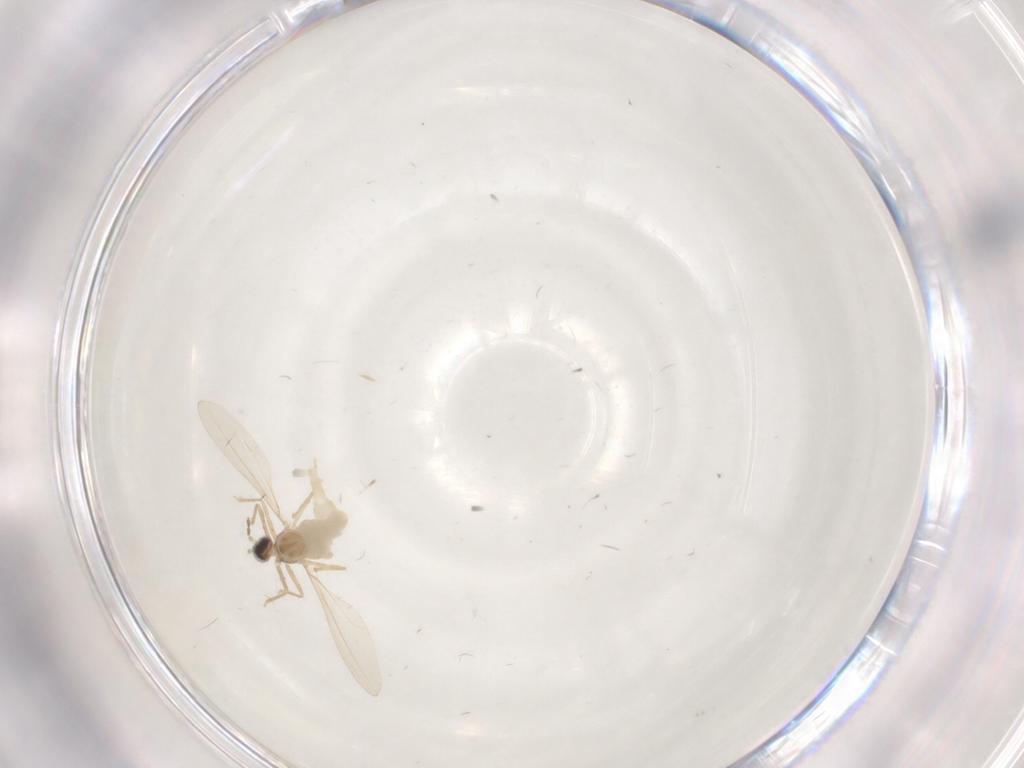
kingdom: Animalia
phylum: Arthropoda
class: Insecta
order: Diptera
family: Cecidomyiidae
